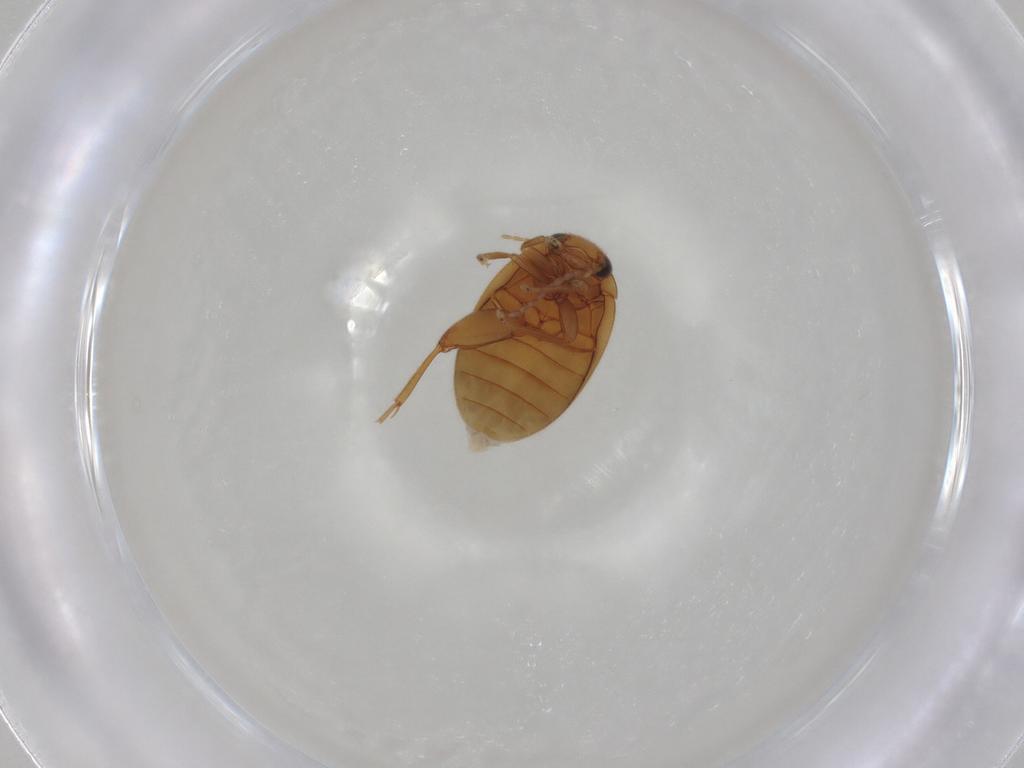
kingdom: Animalia
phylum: Arthropoda
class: Insecta
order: Coleoptera
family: Scirtidae
